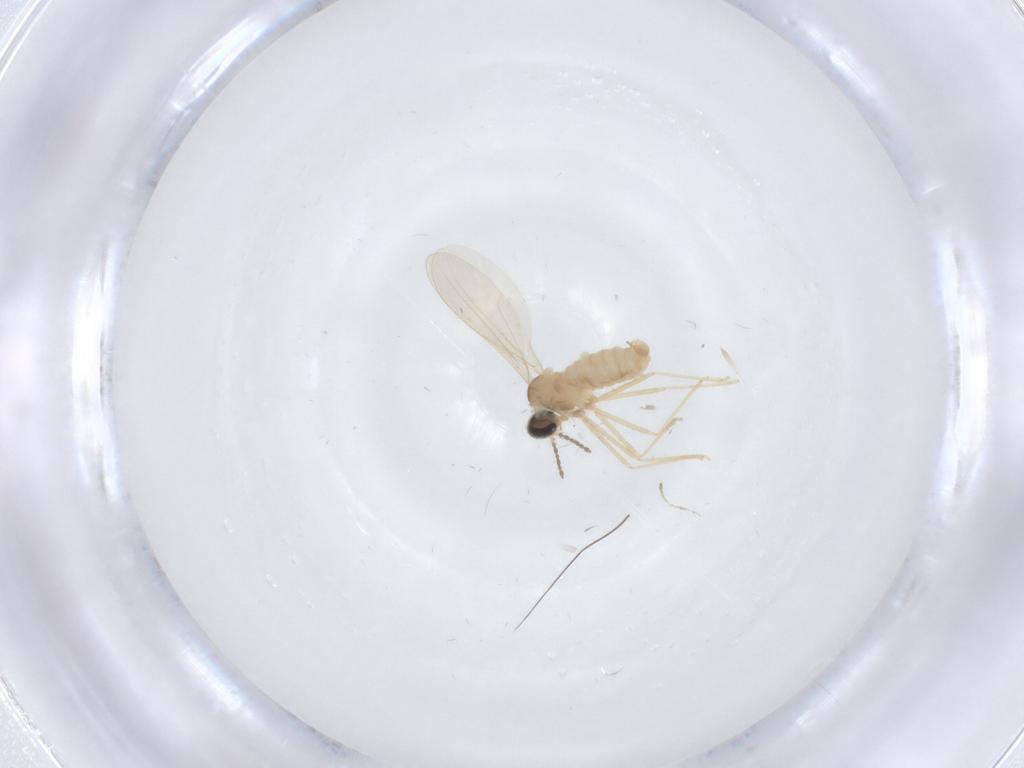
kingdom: Animalia
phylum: Arthropoda
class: Insecta
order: Diptera
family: Cecidomyiidae
